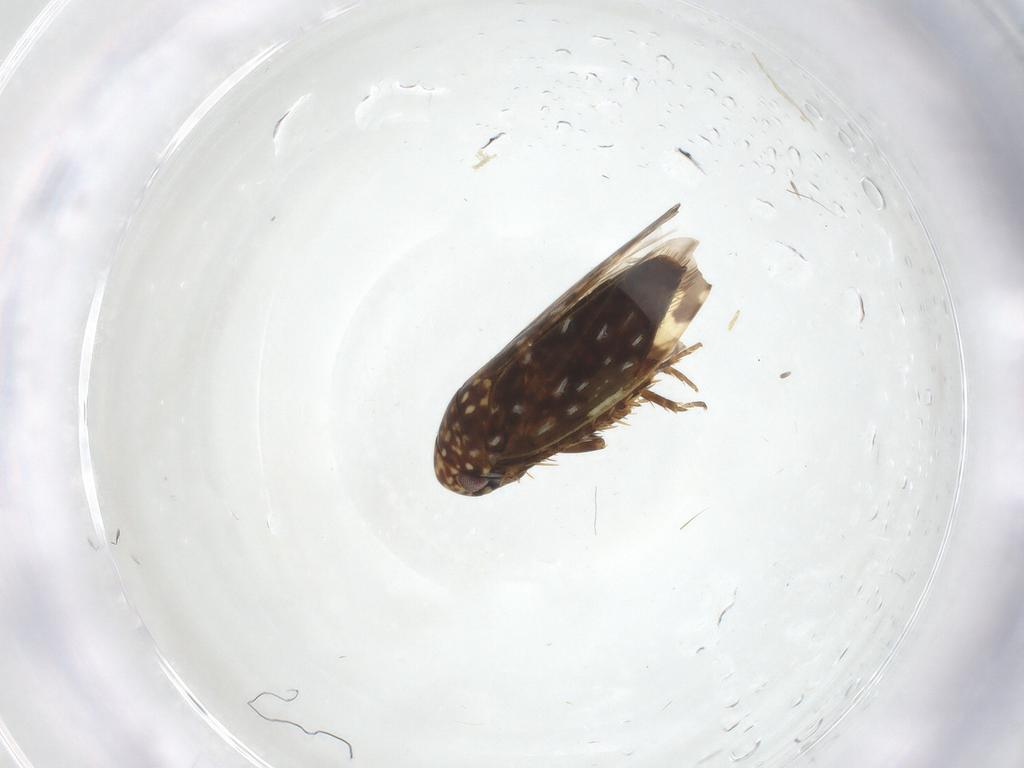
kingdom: Animalia
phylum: Arthropoda
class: Insecta
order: Hemiptera
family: Cicadellidae
